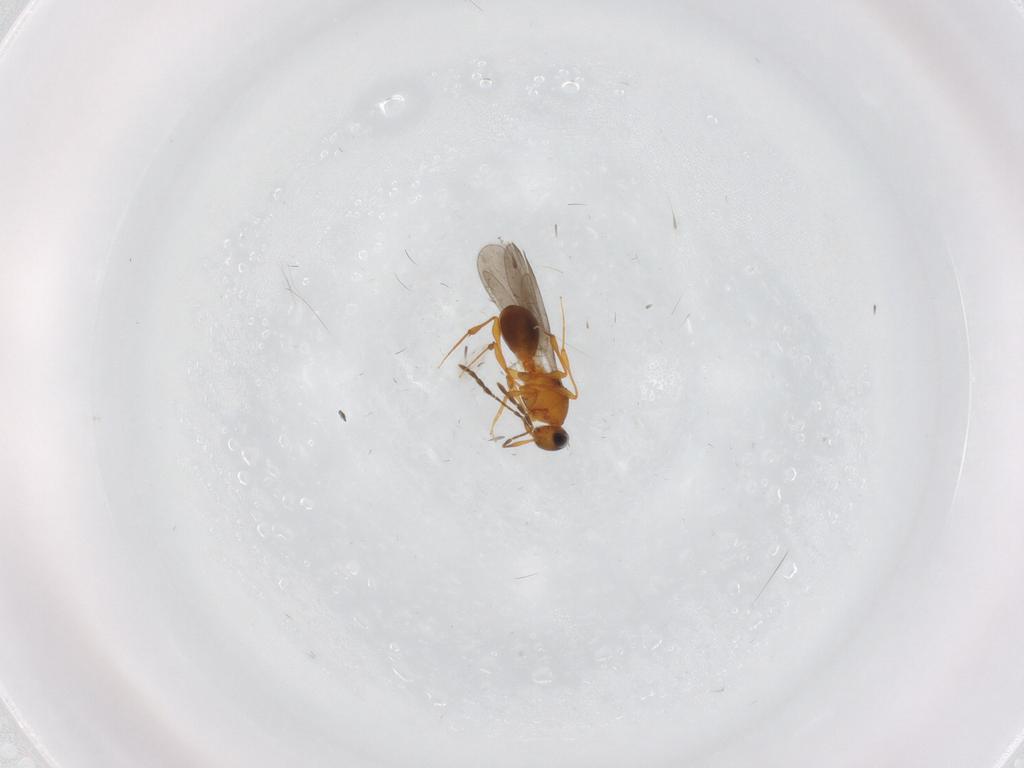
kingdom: Animalia
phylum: Arthropoda
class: Insecta
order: Hymenoptera
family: Platygastridae
